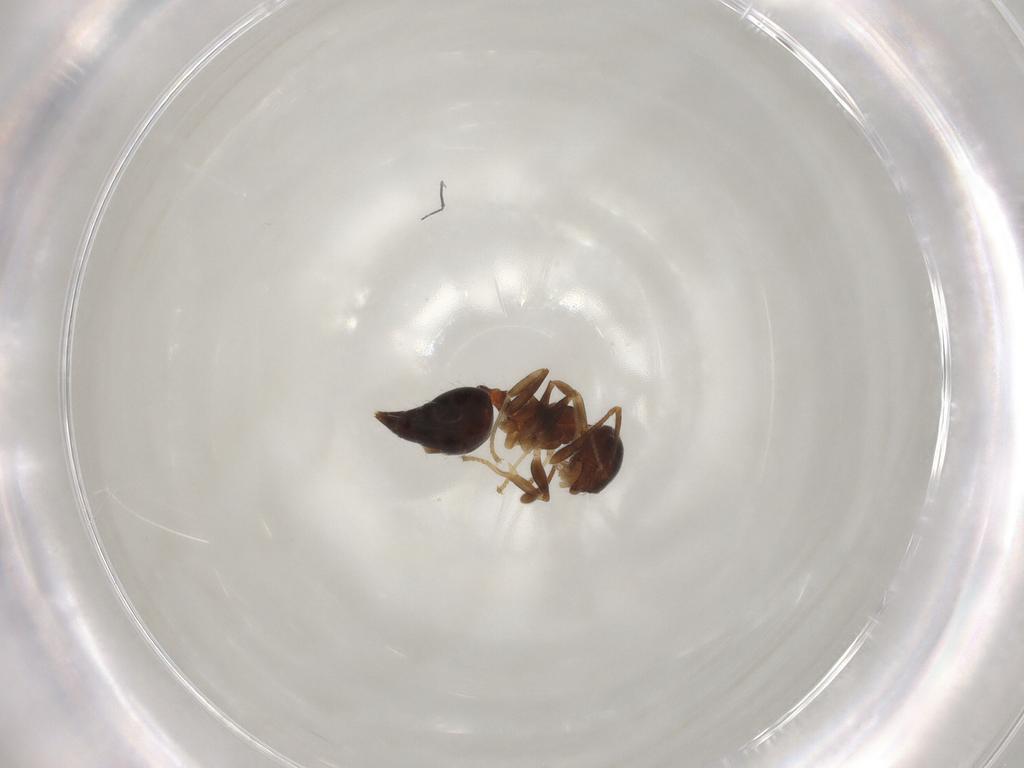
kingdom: Animalia
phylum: Arthropoda
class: Insecta
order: Hymenoptera
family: Formicidae
